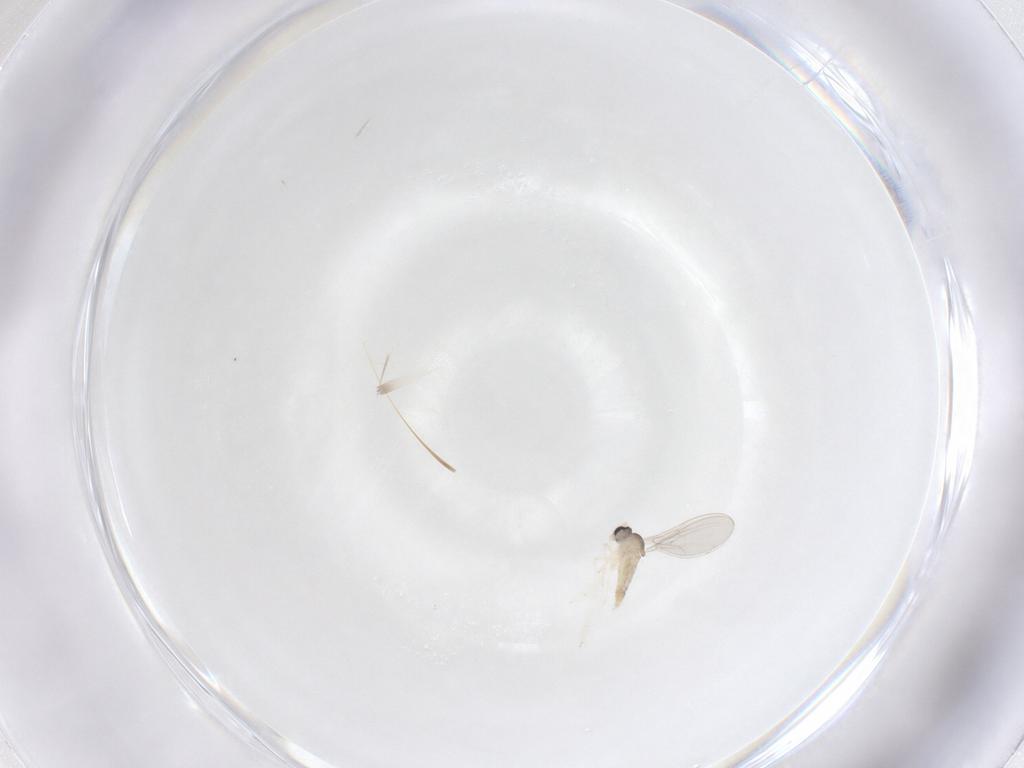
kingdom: Animalia
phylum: Arthropoda
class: Insecta
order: Diptera
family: Cecidomyiidae
